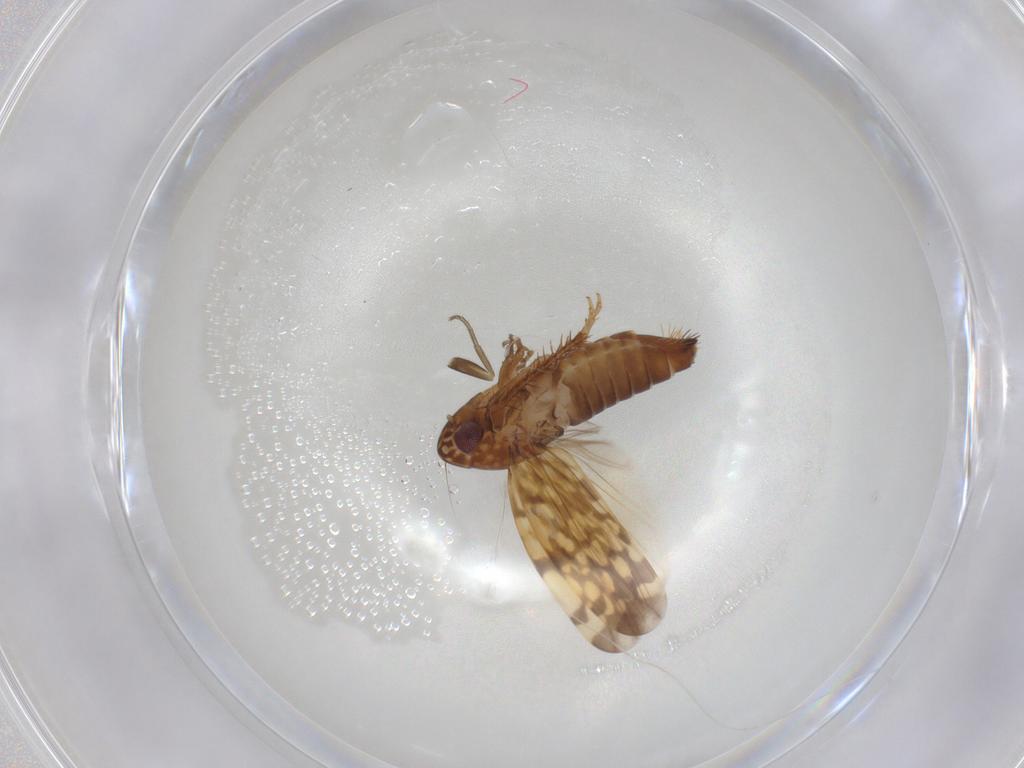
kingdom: Animalia
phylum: Arthropoda
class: Insecta
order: Hemiptera
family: Cicadellidae
